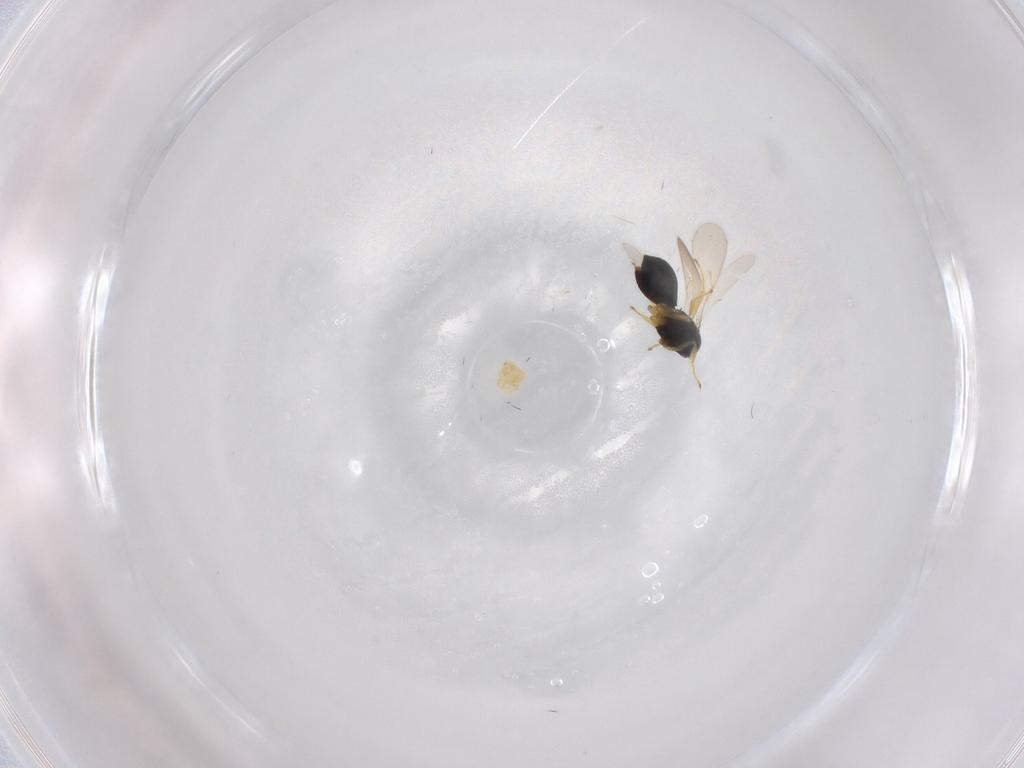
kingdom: Animalia
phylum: Arthropoda
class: Insecta
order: Hymenoptera
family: Scelionidae
